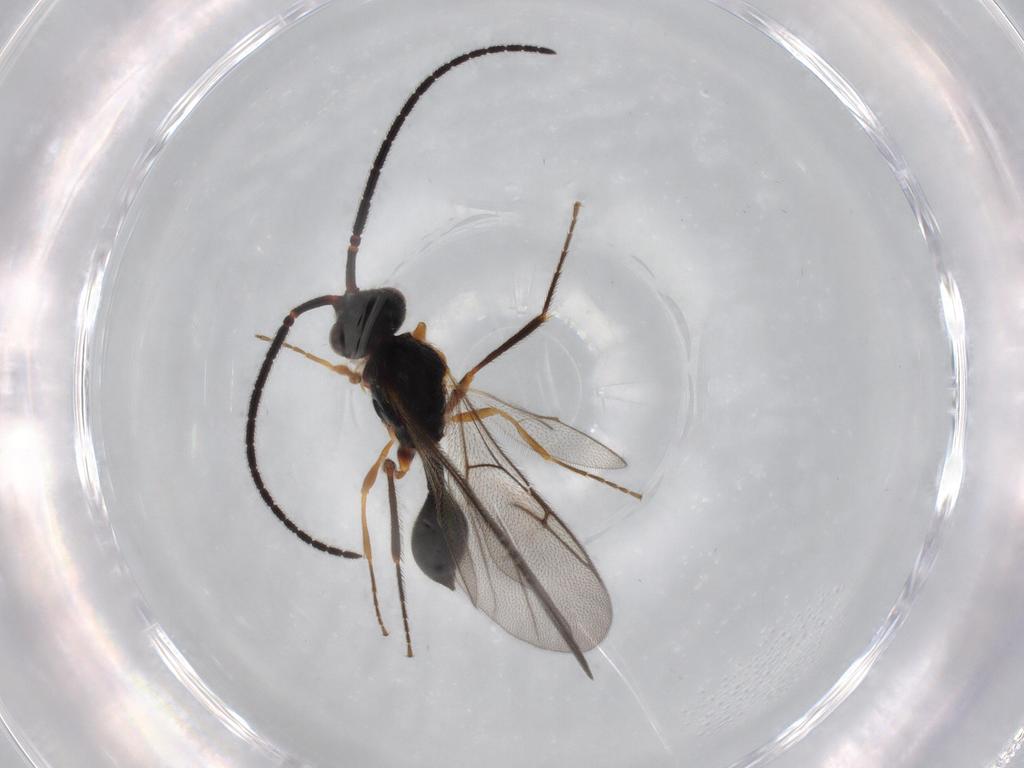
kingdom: Animalia
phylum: Arthropoda
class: Insecta
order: Hymenoptera
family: Diapriidae
